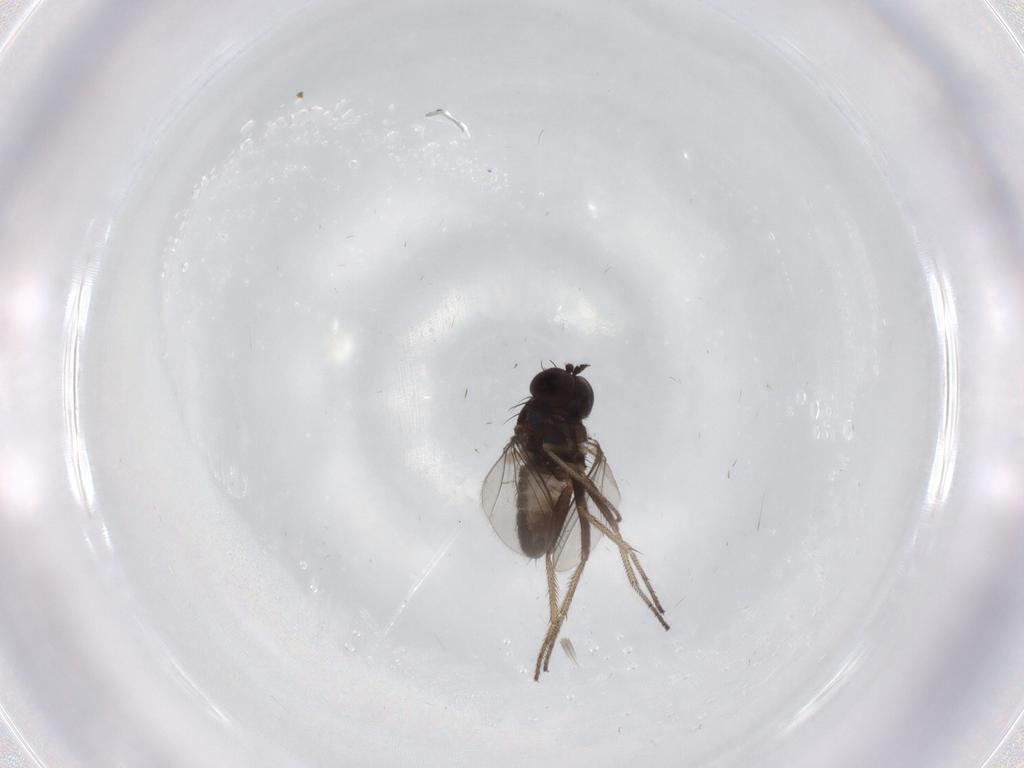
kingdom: Animalia
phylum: Arthropoda
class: Insecta
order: Diptera
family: Dolichopodidae
